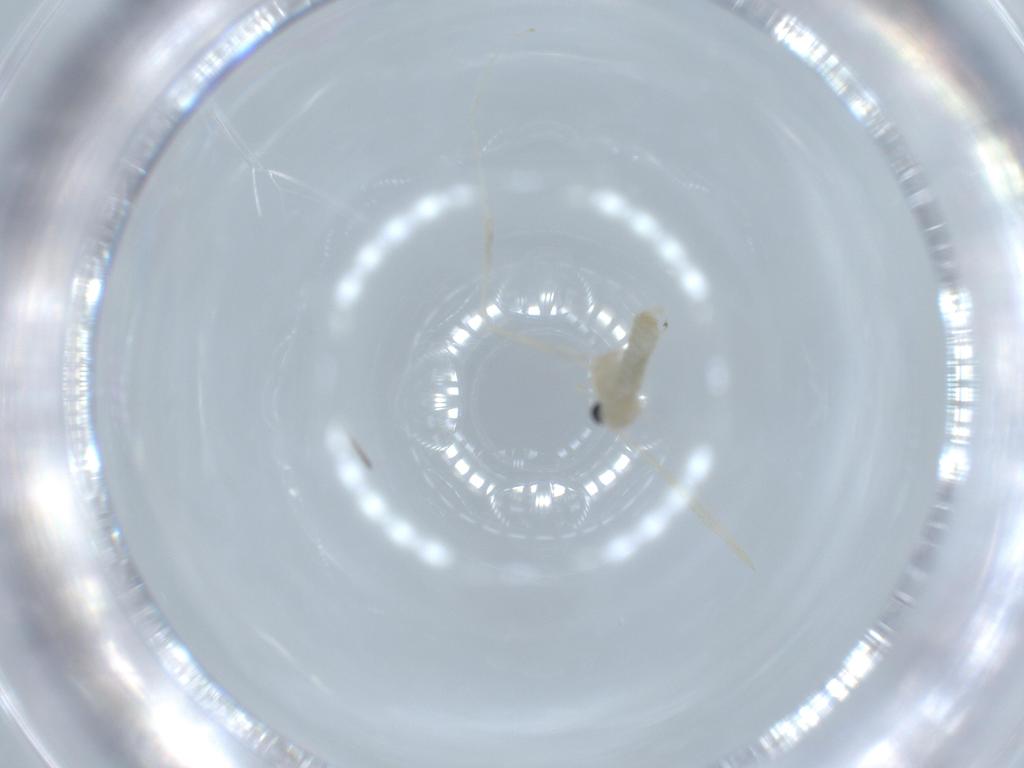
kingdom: Animalia
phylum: Arthropoda
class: Insecta
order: Diptera
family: Cecidomyiidae
